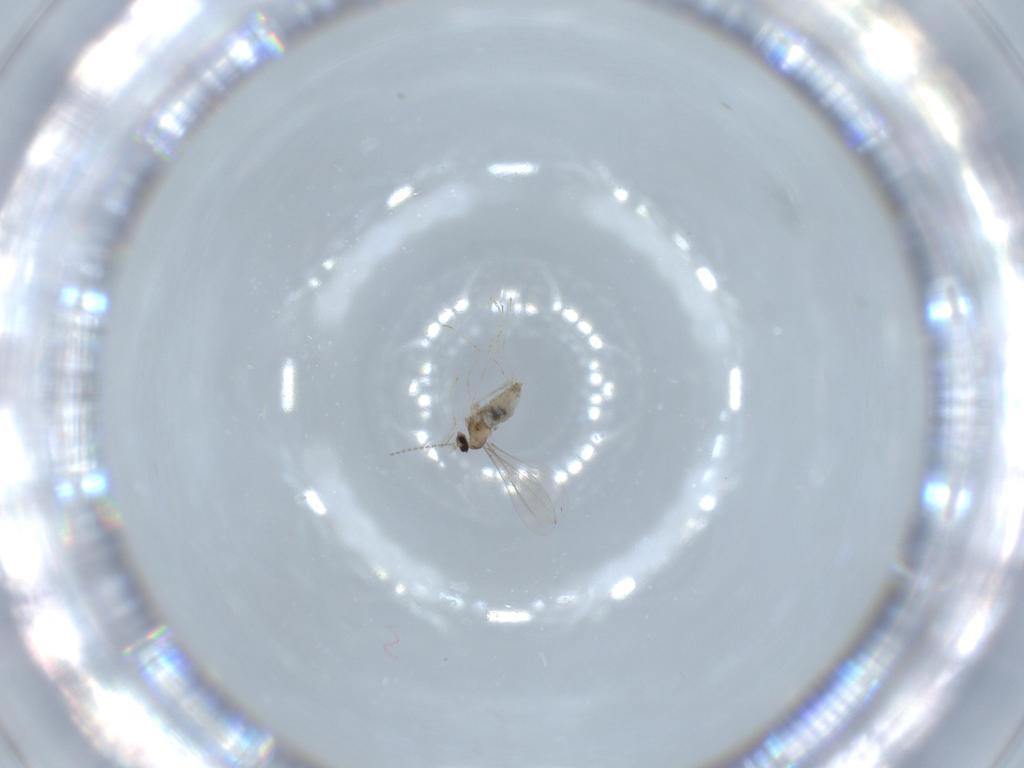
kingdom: Animalia
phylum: Arthropoda
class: Insecta
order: Diptera
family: Cecidomyiidae
